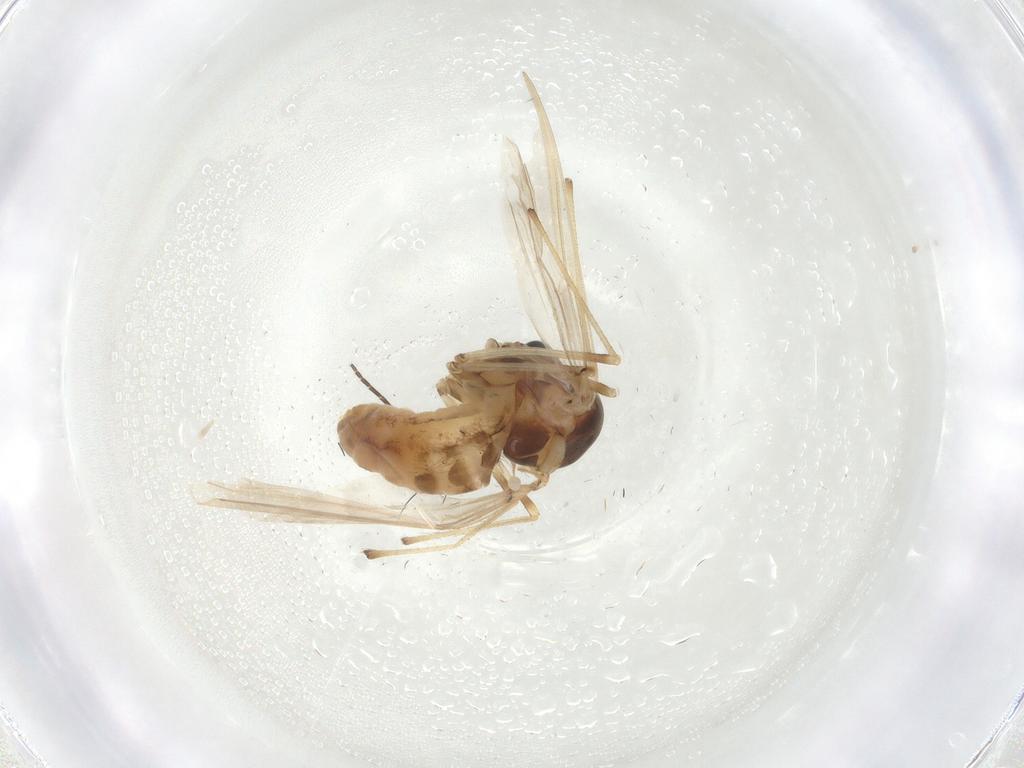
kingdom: Animalia
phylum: Arthropoda
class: Insecta
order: Diptera
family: Chironomidae
